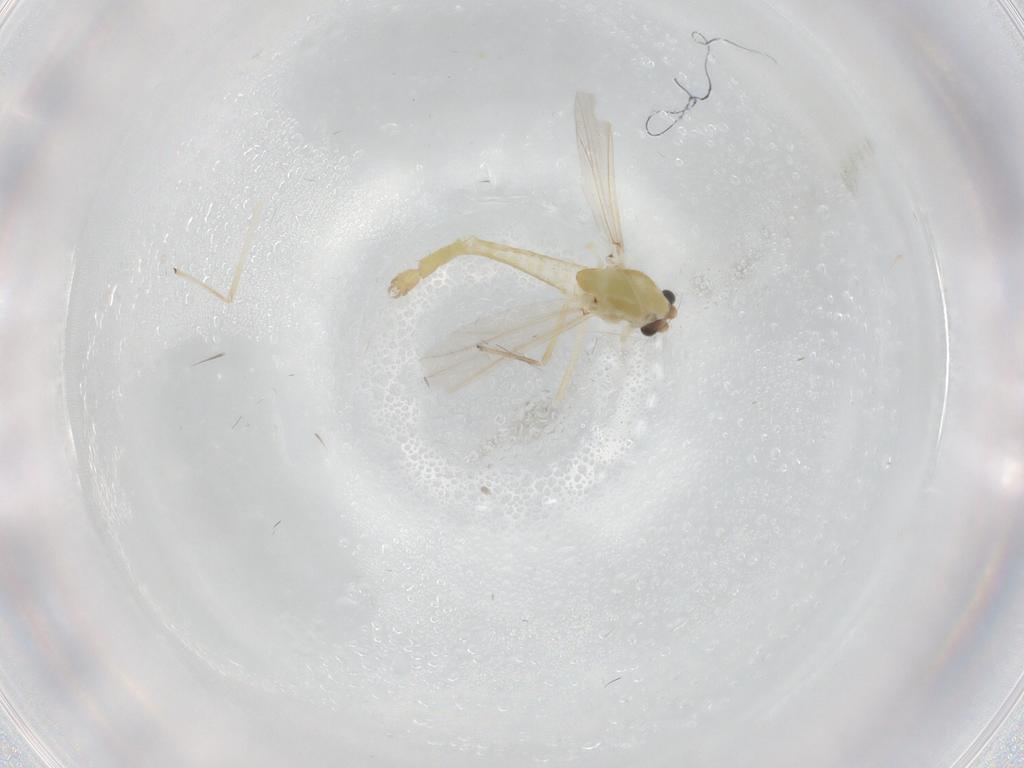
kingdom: Animalia
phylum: Arthropoda
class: Insecta
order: Diptera
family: Chironomidae
